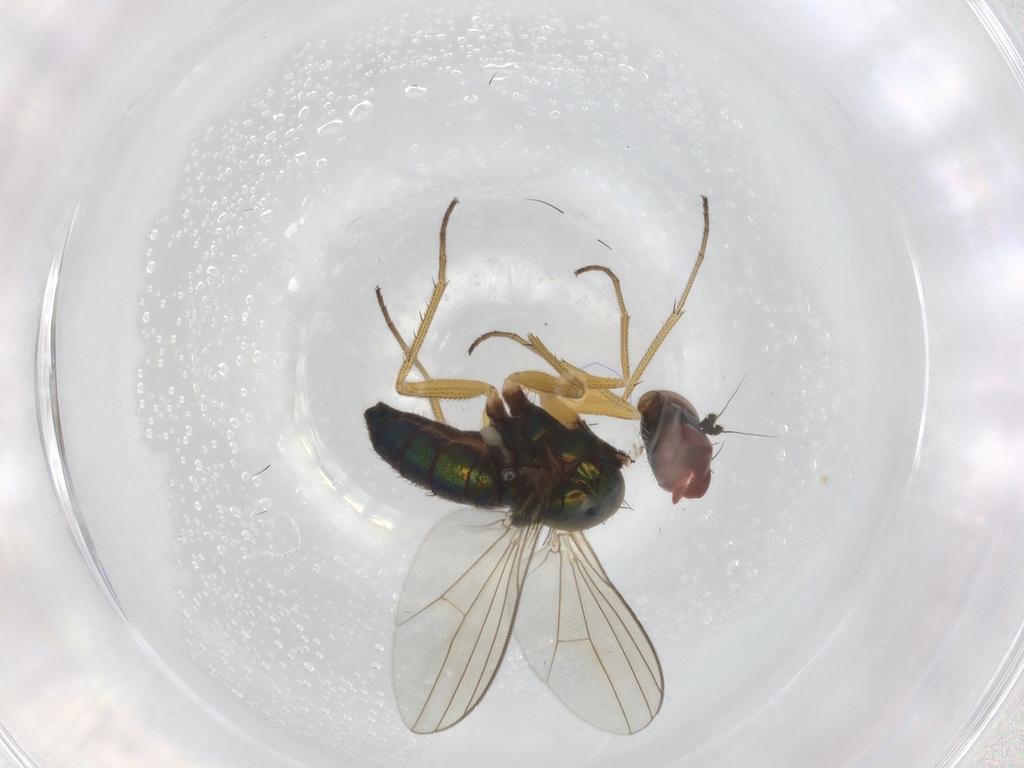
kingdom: Animalia
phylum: Arthropoda
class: Insecta
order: Diptera
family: Dolichopodidae
